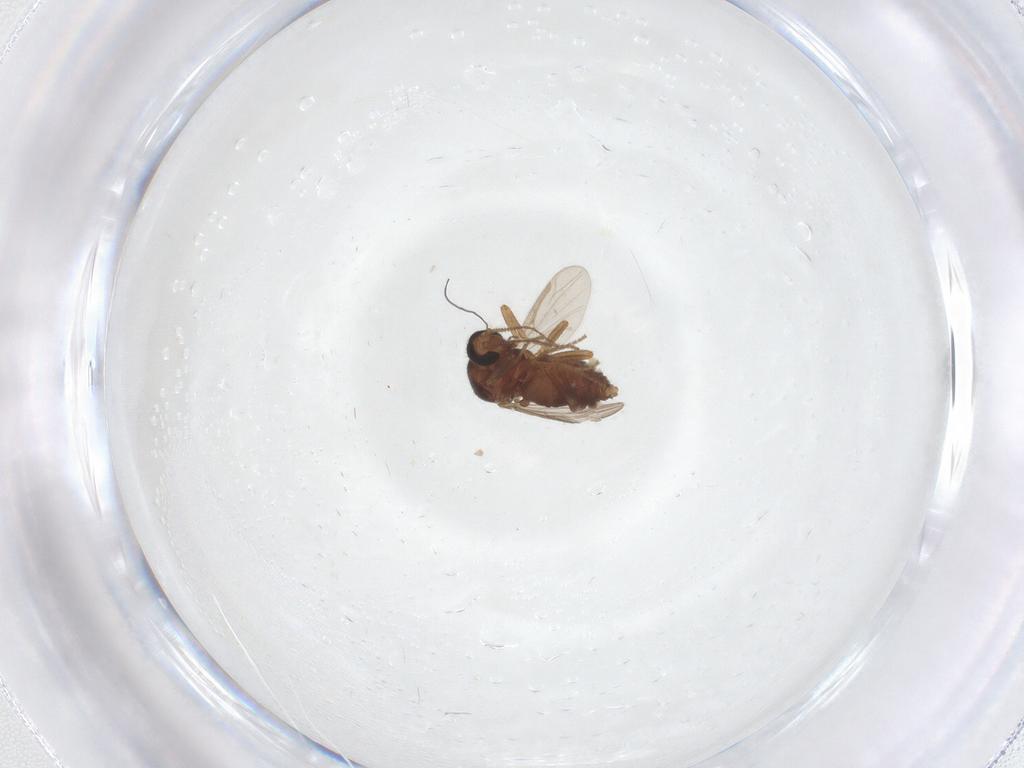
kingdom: Animalia
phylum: Arthropoda
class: Insecta
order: Diptera
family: Ceratopogonidae
